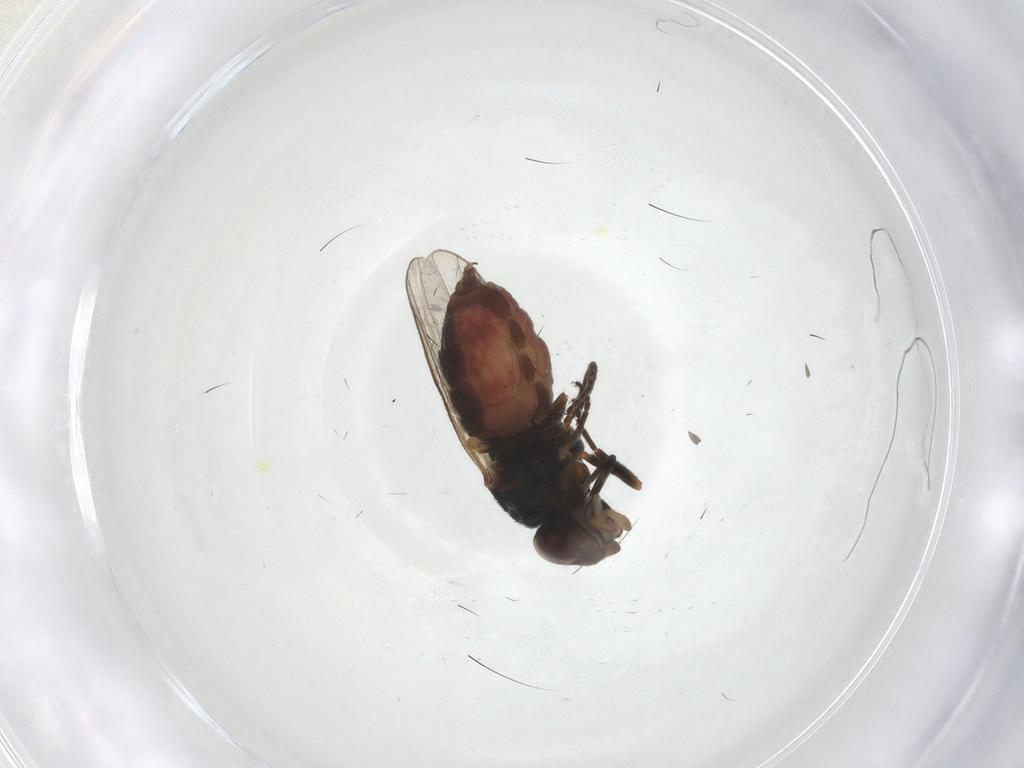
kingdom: Animalia
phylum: Arthropoda
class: Insecta
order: Diptera
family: Chloropidae
